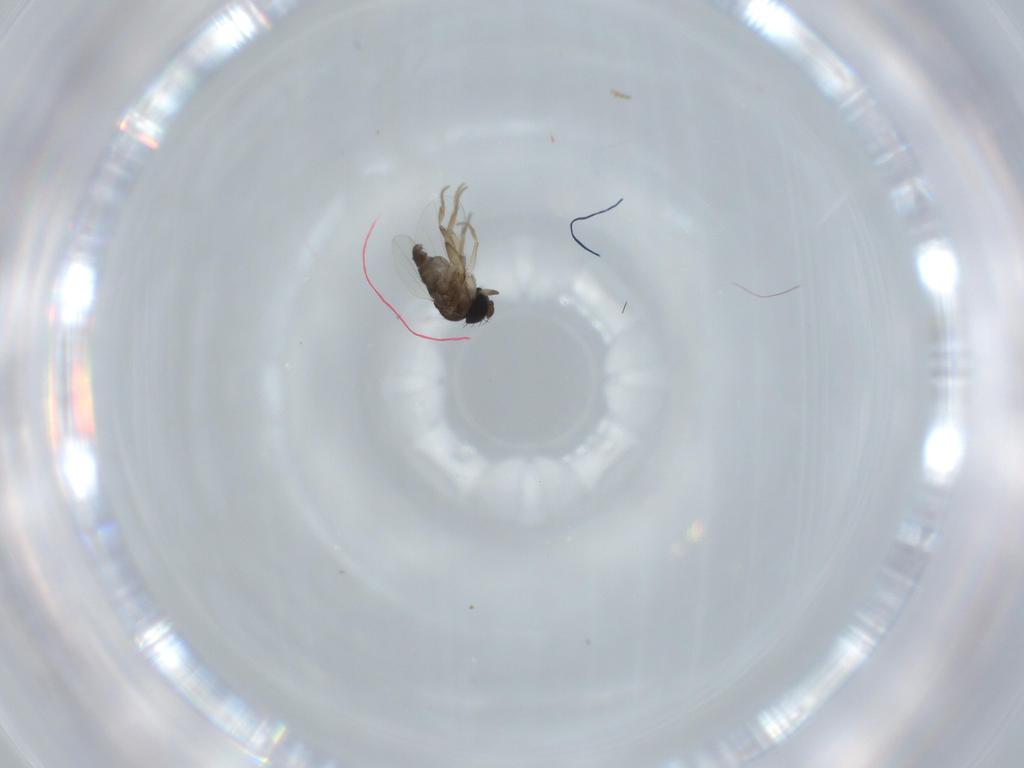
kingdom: Animalia
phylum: Arthropoda
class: Insecta
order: Diptera
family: Phoridae
